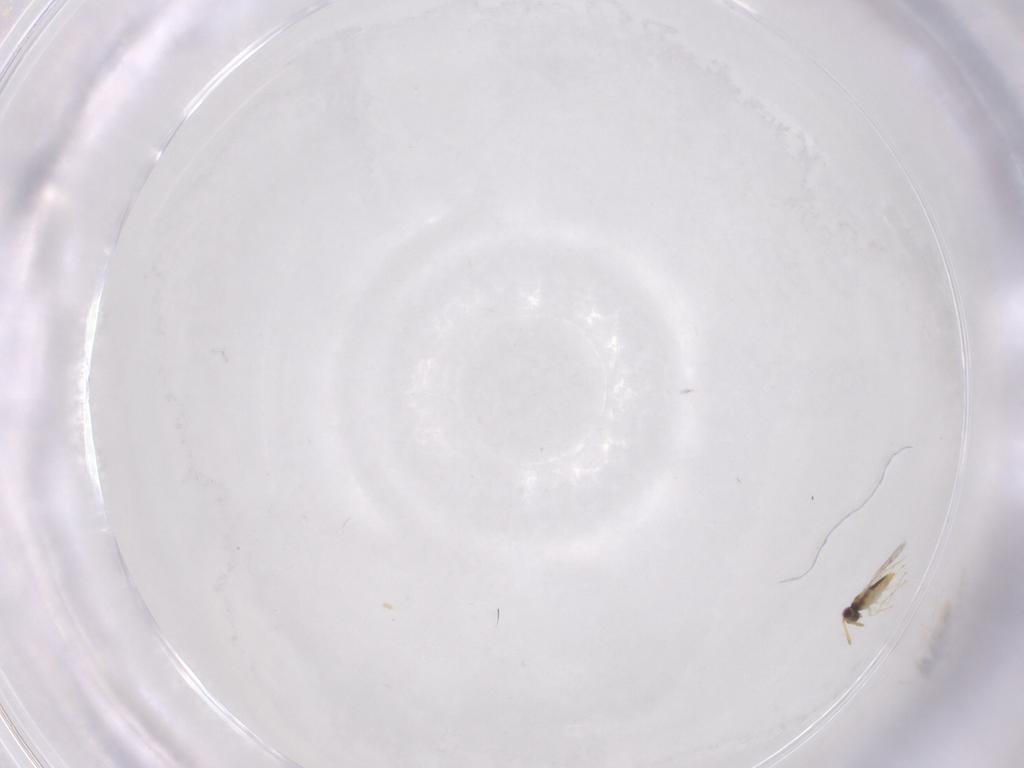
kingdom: Animalia
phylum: Arthropoda
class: Insecta
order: Hymenoptera
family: Aphelinidae
